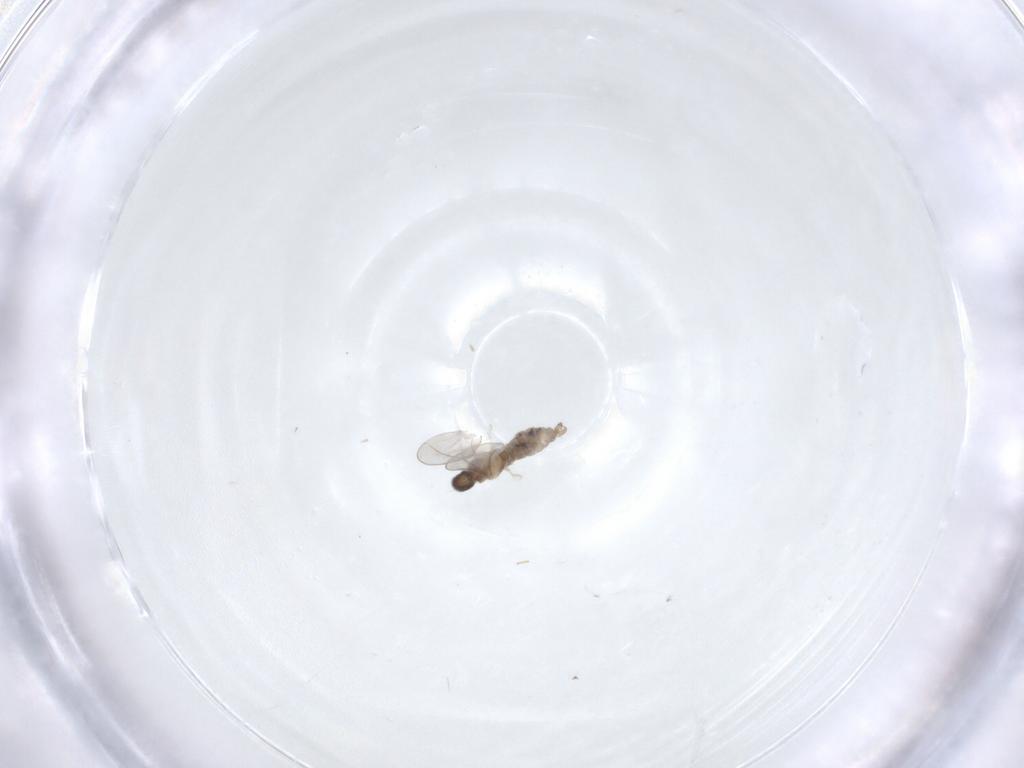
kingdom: Animalia
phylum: Arthropoda
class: Insecta
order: Diptera
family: Cecidomyiidae
